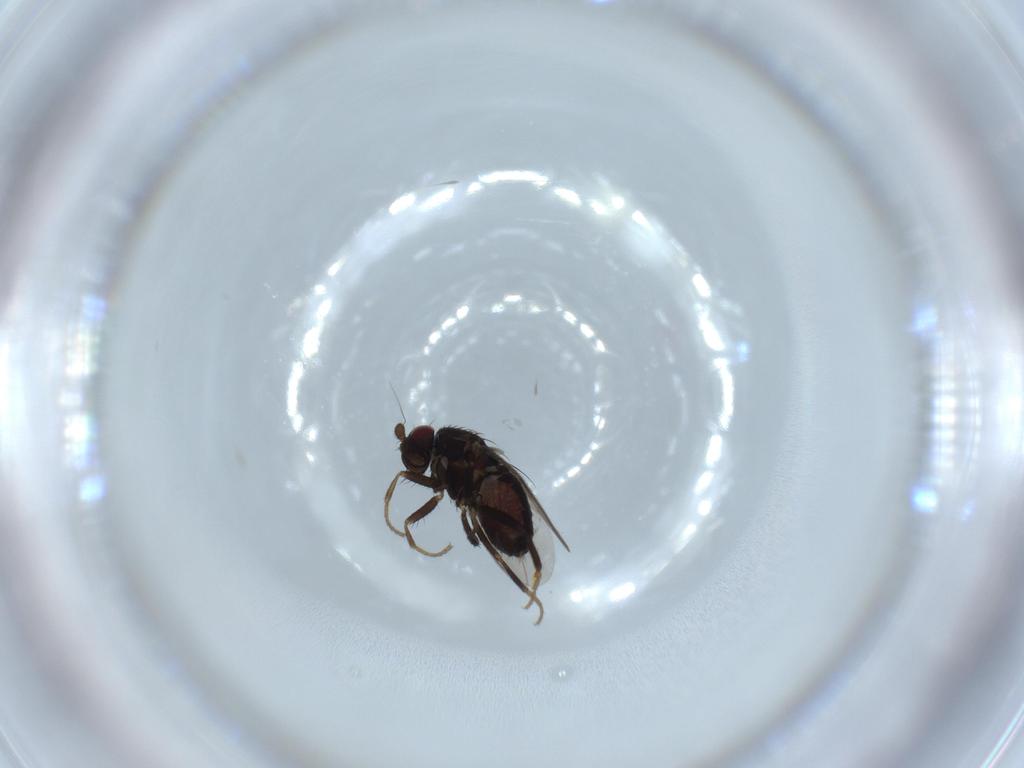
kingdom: Animalia
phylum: Arthropoda
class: Insecta
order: Diptera
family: Sphaeroceridae
